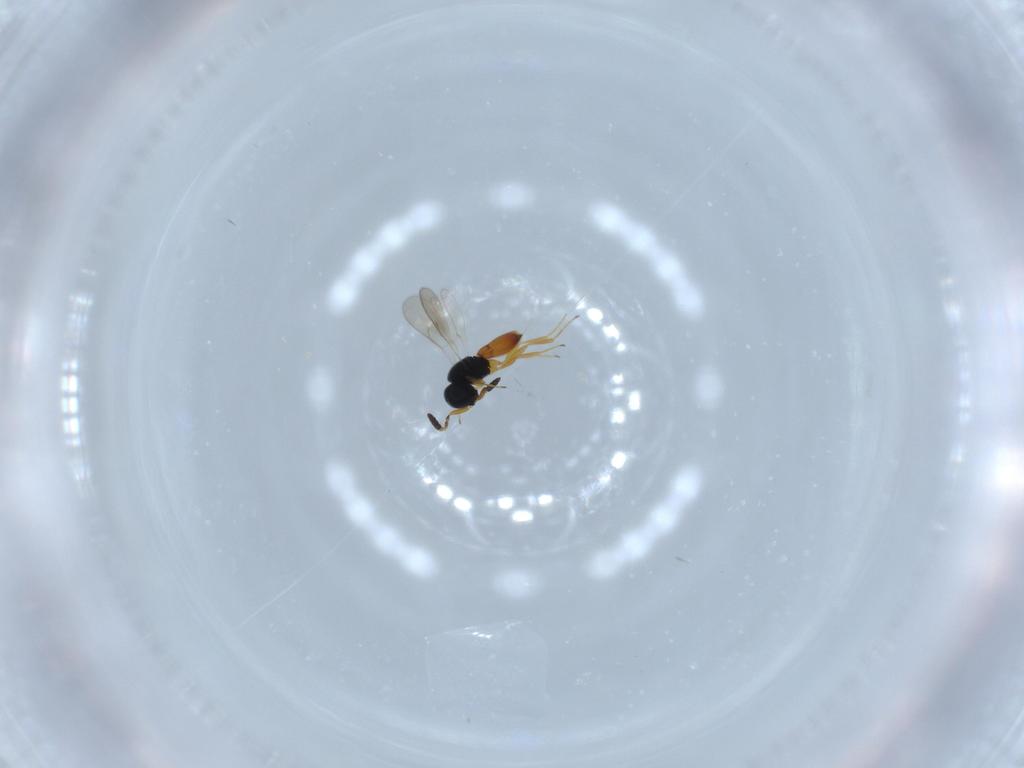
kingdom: Animalia
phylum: Arthropoda
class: Insecta
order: Hymenoptera
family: Scelionidae
